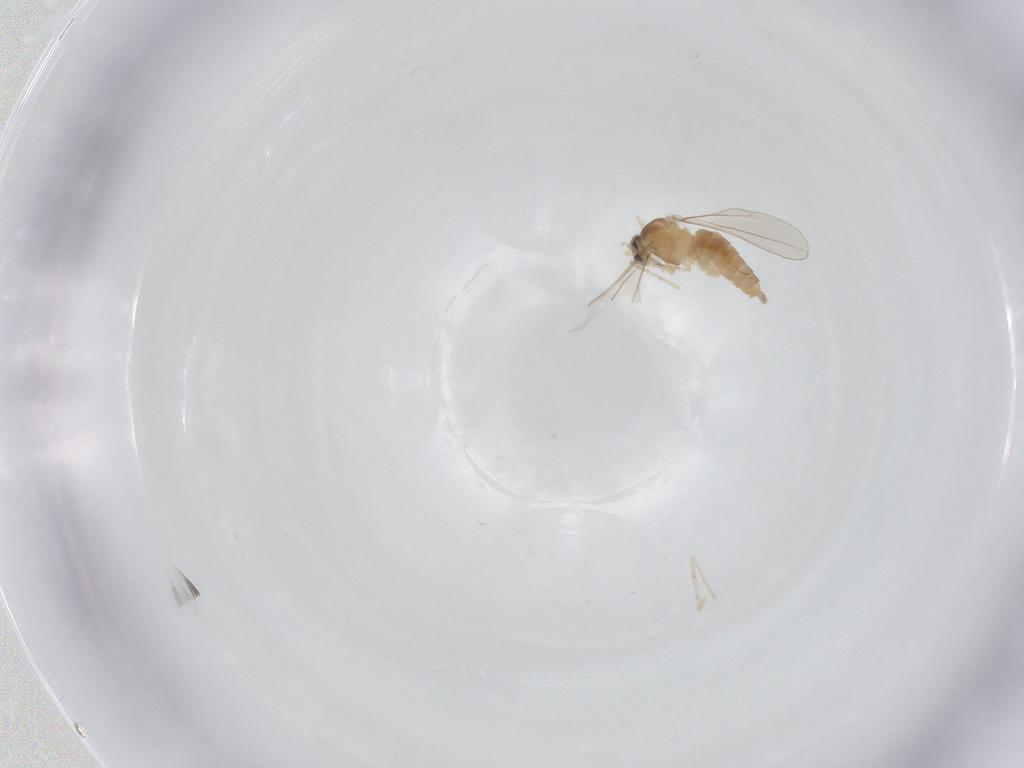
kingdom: Animalia
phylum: Arthropoda
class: Insecta
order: Diptera
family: Cecidomyiidae
